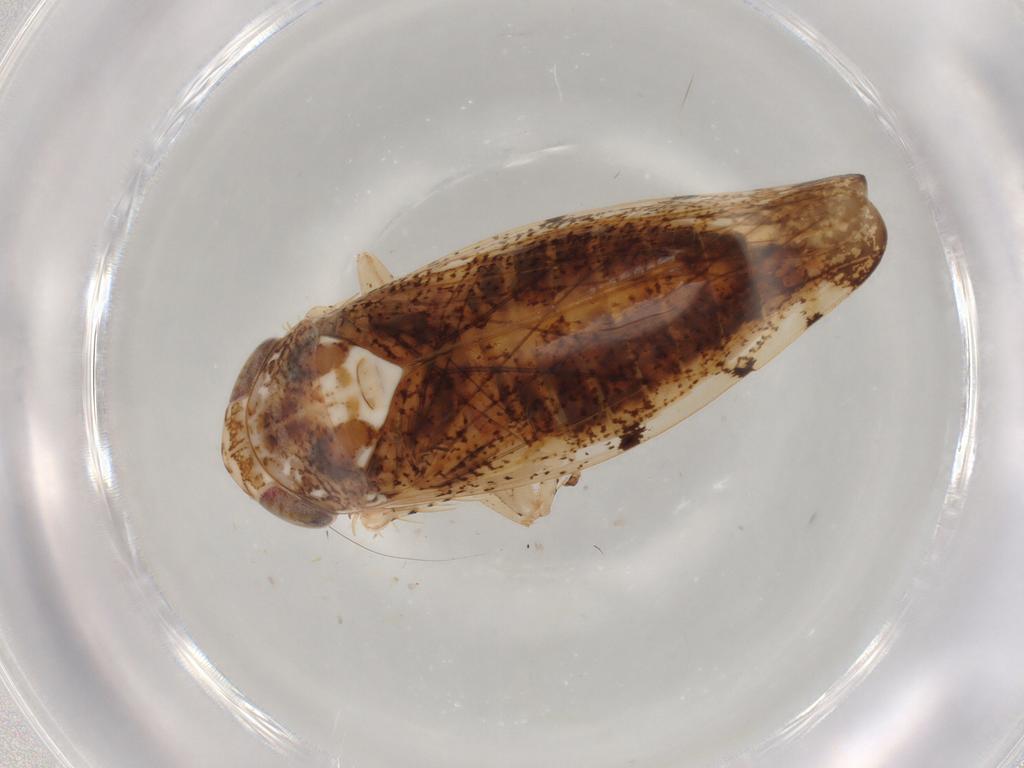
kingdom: Animalia
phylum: Arthropoda
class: Insecta
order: Hemiptera
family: Cicadellidae
